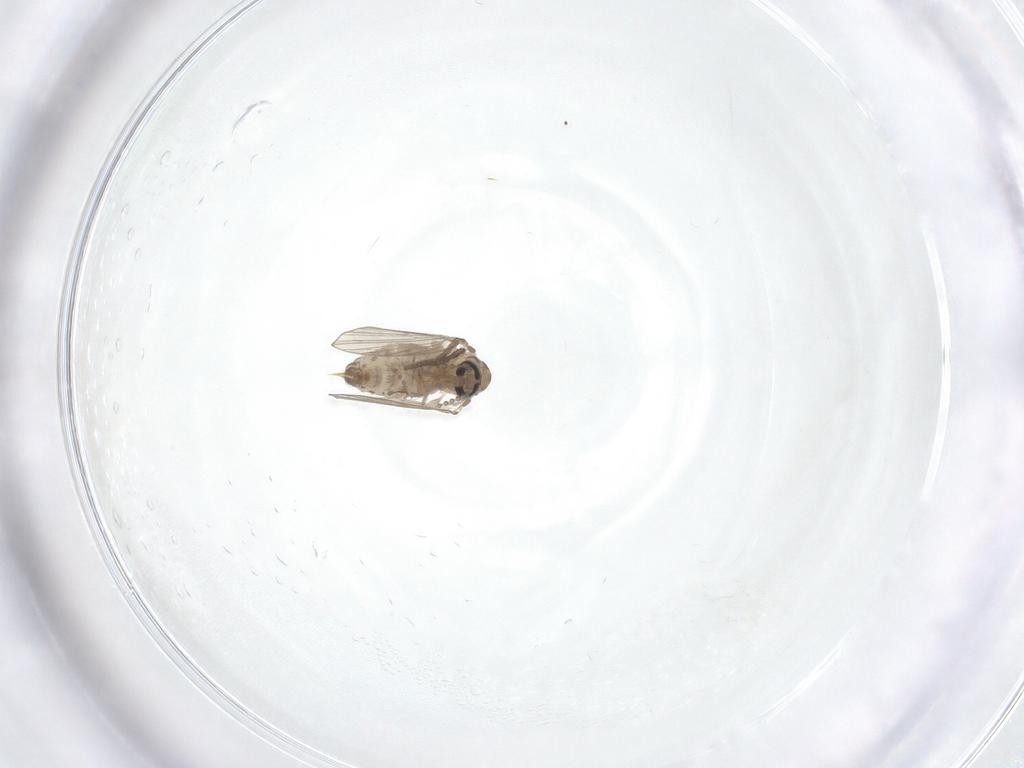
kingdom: Animalia
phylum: Arthropoda
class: Insecta
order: Diptera
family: Psychodidae
